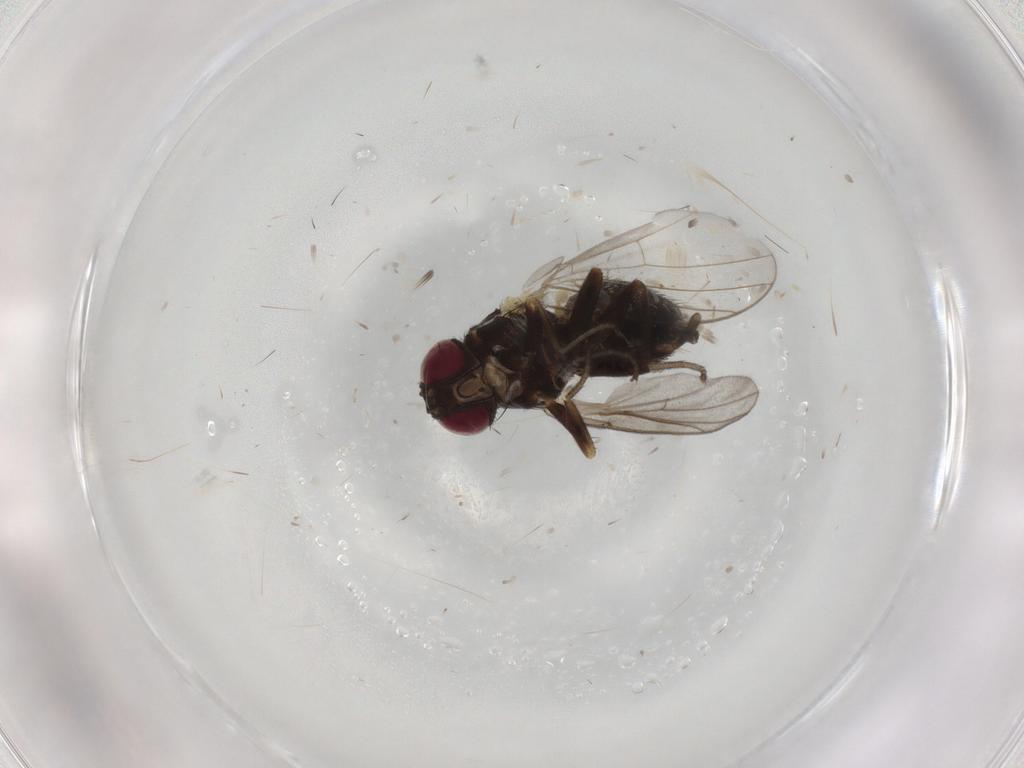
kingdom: Animalia
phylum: Arthropoda
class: Insecta
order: Diptera
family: Agromyzidae
